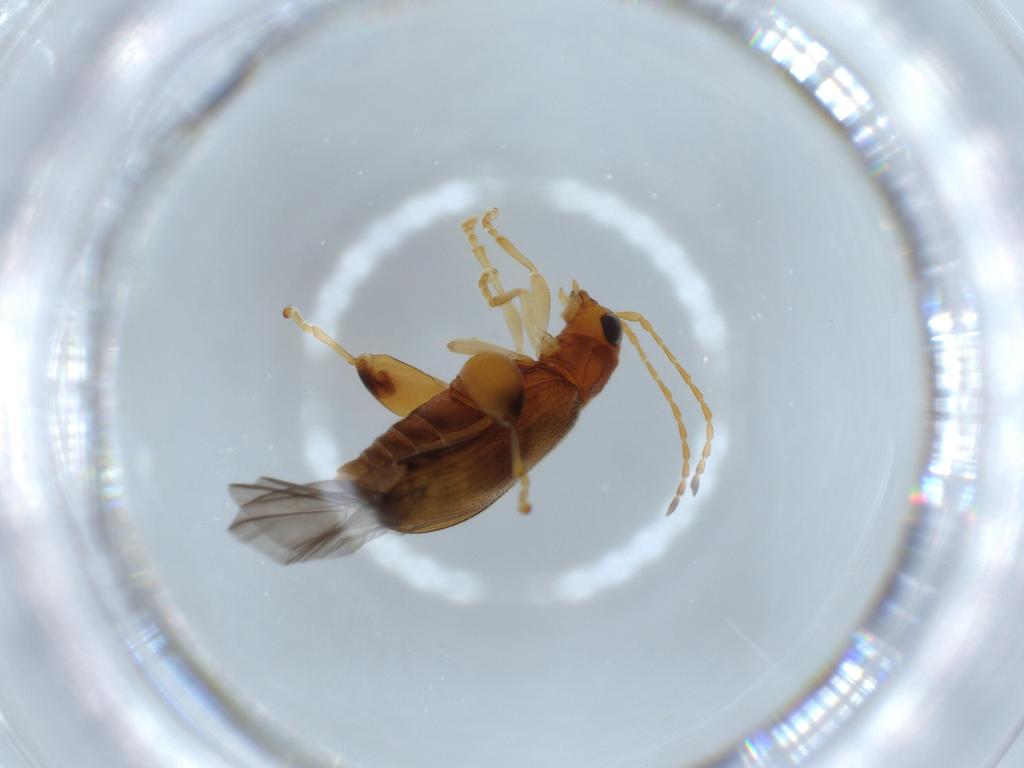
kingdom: Animalia
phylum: Arthropoda
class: Insecta
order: Coleoptera
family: Chrysomelidae
